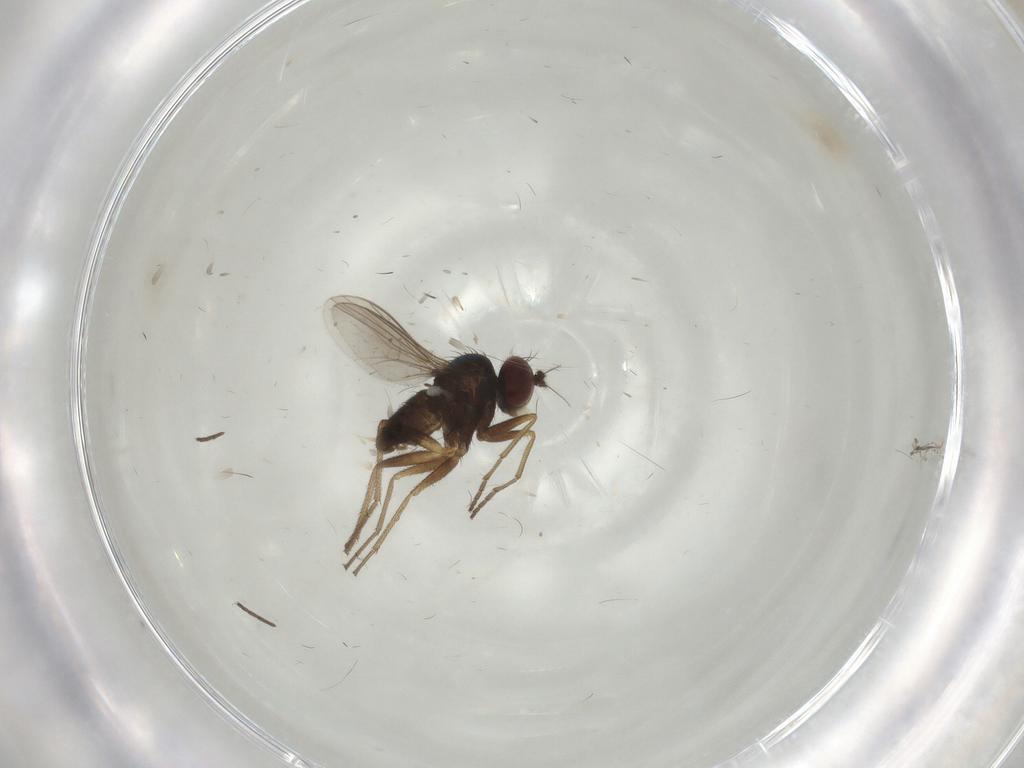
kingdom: Animalia
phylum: Arthropoda
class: Insecta
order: Diptera
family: Dolichopodidae
